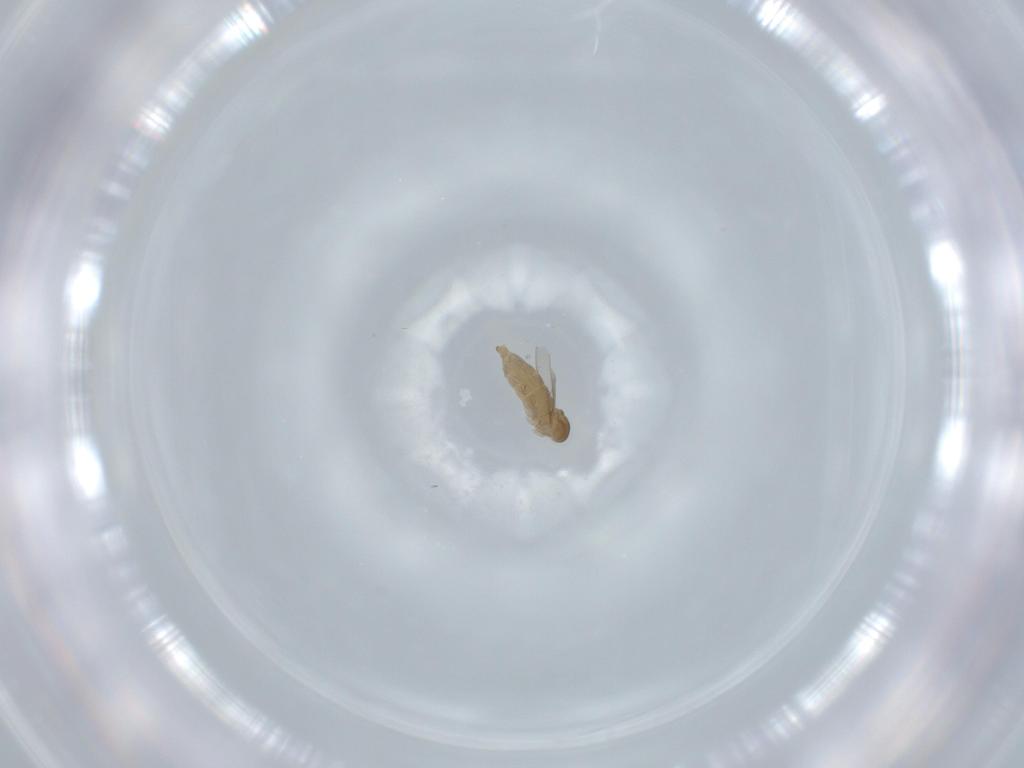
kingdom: Animalia
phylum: Arthropoda
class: Insecta
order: Diptera
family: Cecidomyiidae
